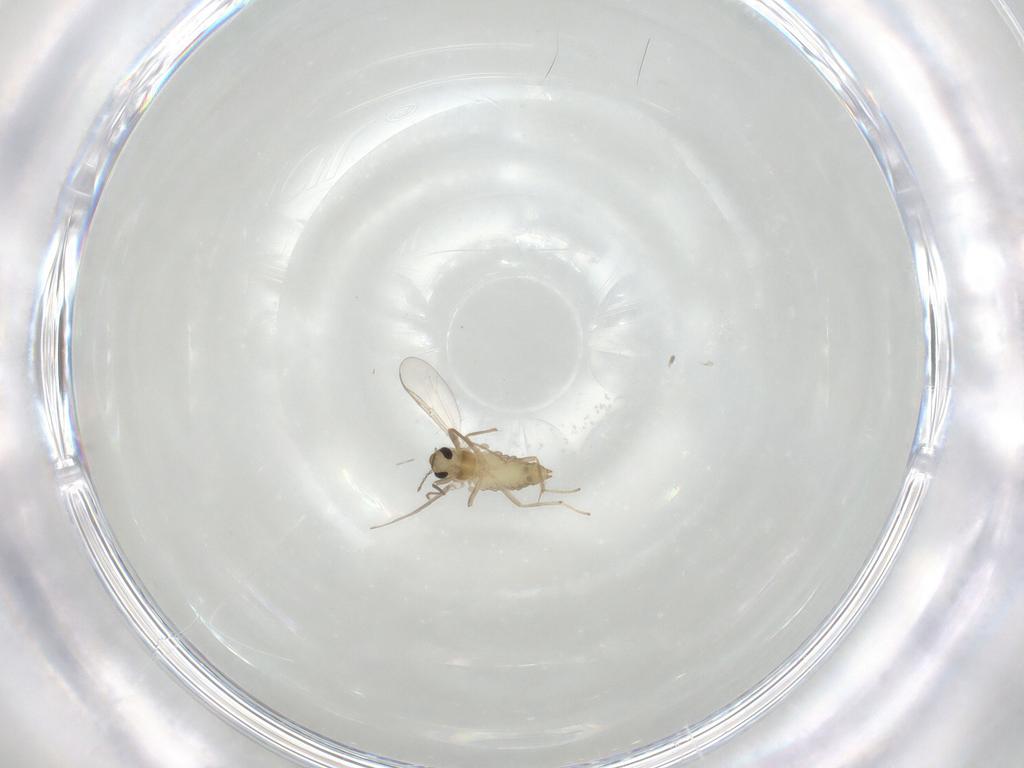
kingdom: Animalia
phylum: Arthropoda
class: Insecta
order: Diptera
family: Chironomidae
